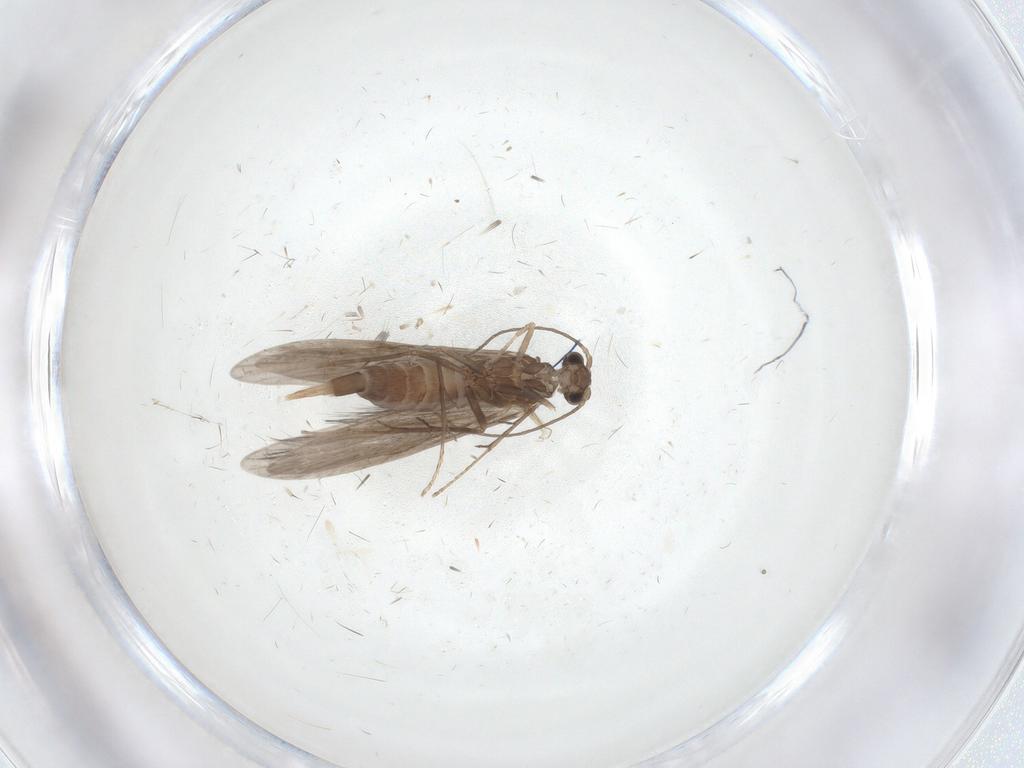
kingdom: Animalia
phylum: Arthropoda
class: Insecta
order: Trichoptera
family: Xiphocentronidae
